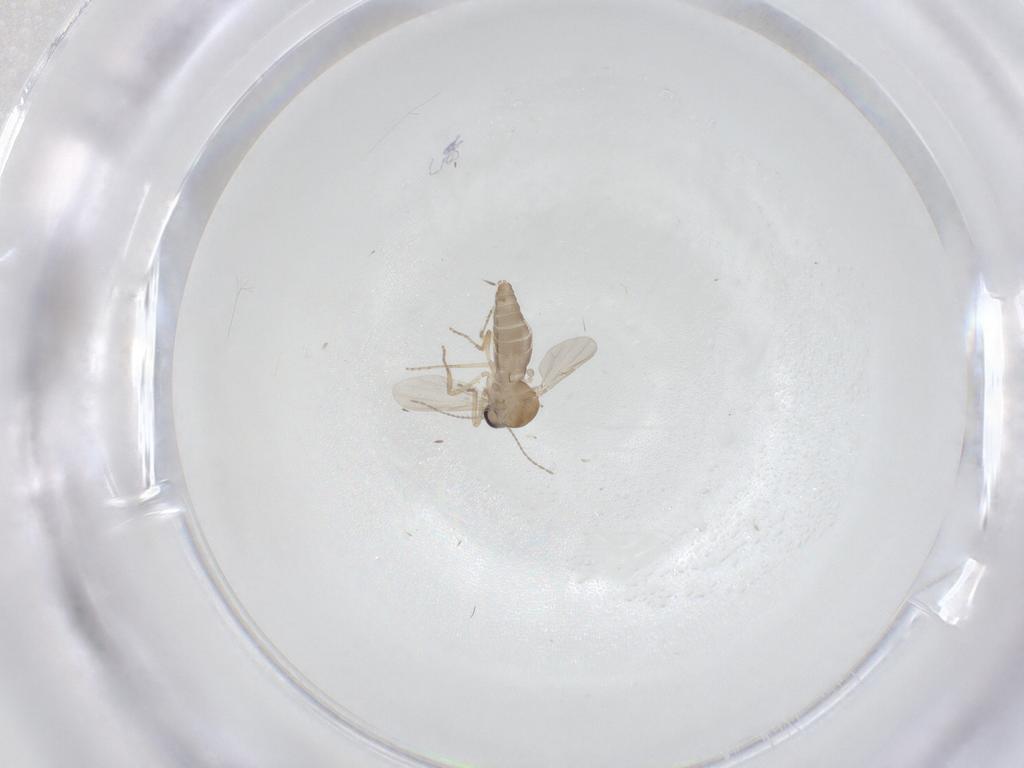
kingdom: Animalia
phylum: Arthropoda
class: Insecta
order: Diptera
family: Ceratopogonidae
